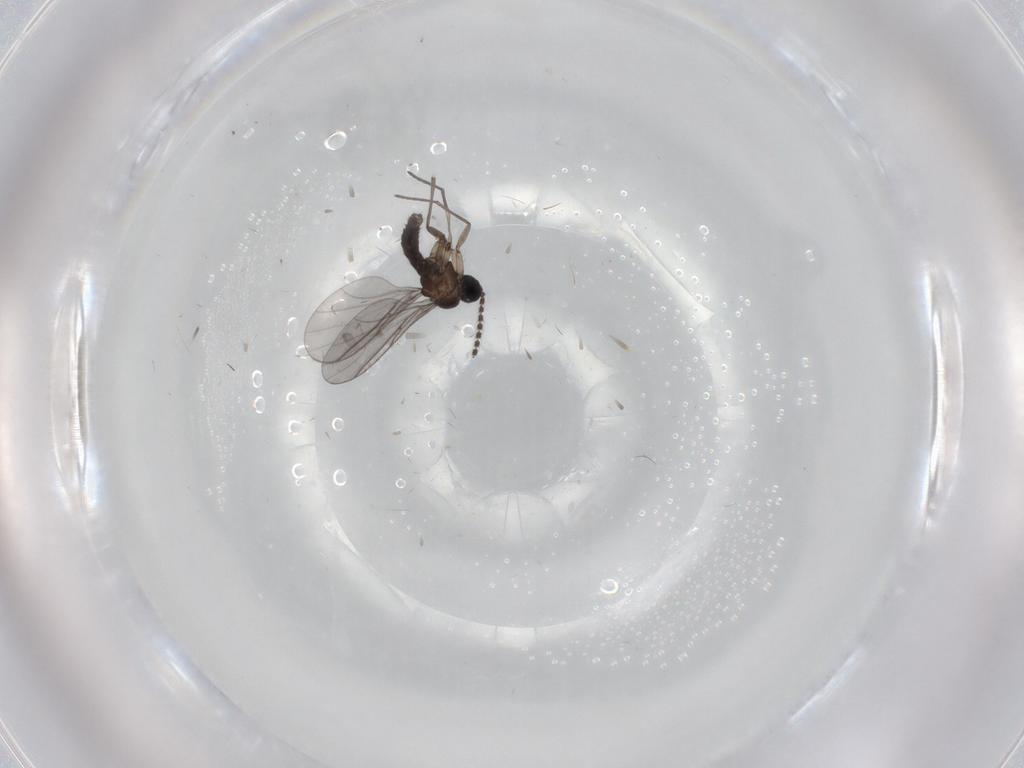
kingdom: Animalia
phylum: Arthropoda
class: Insecta
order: Diptera
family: Sciaridae
